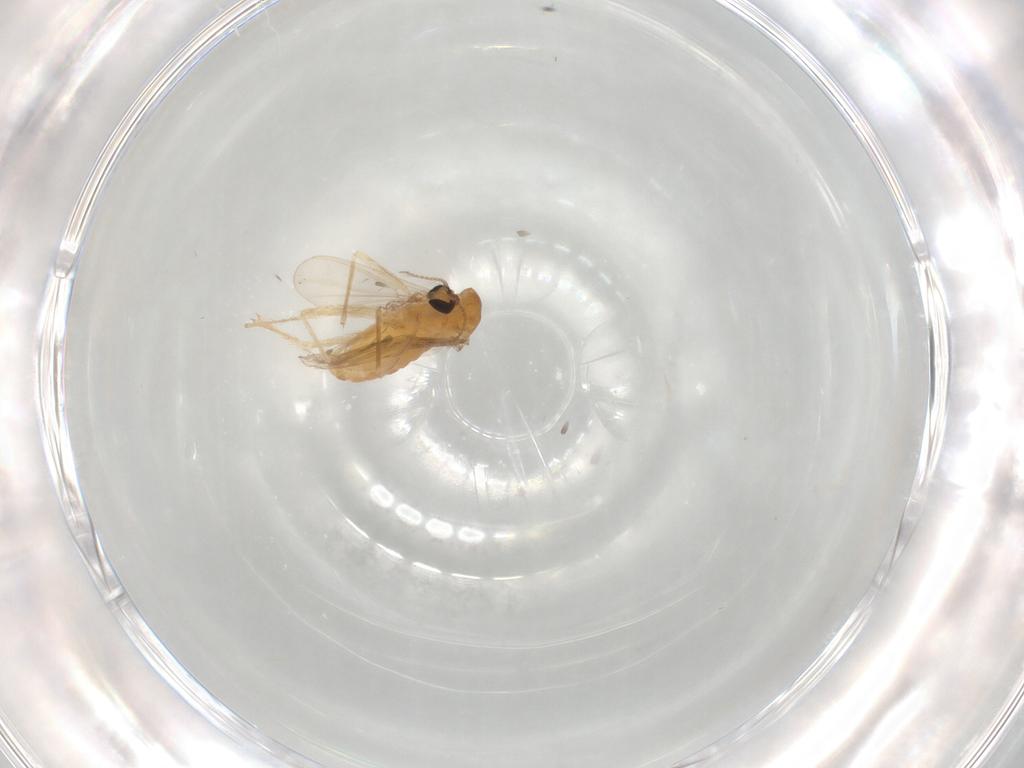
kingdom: Animalia
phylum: Arthropoda
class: Insecta
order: Diptera
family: Chironomidae
